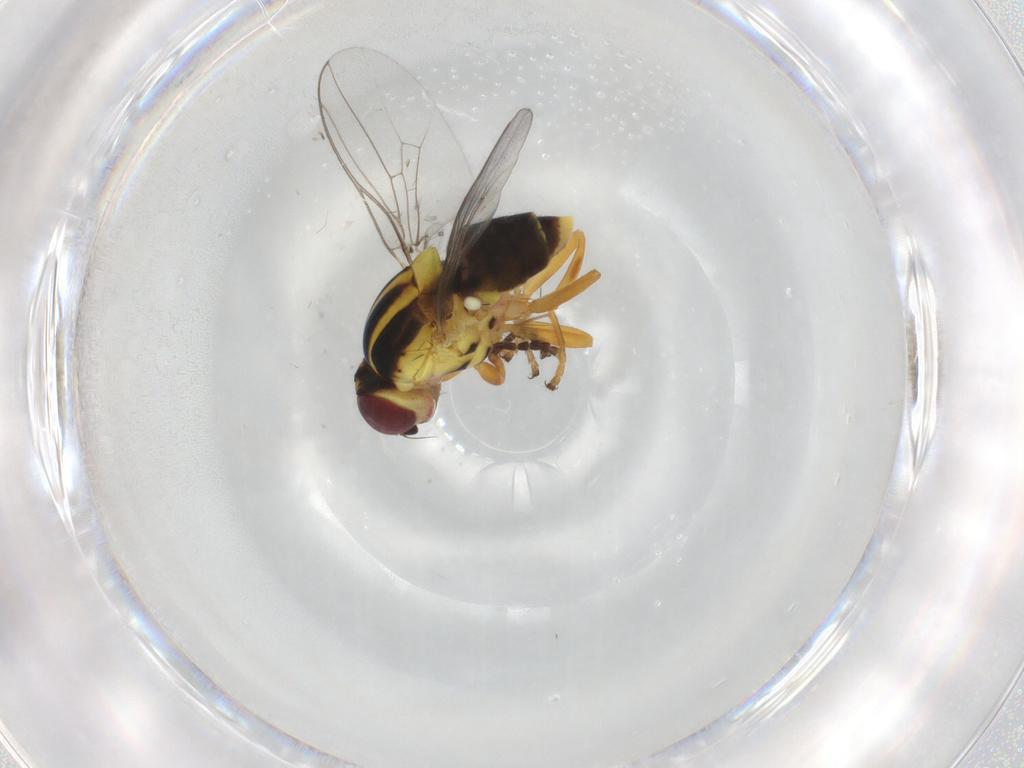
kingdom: Animalia
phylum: Arthropoda
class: Insecta
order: Diptera
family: Chloropidae
